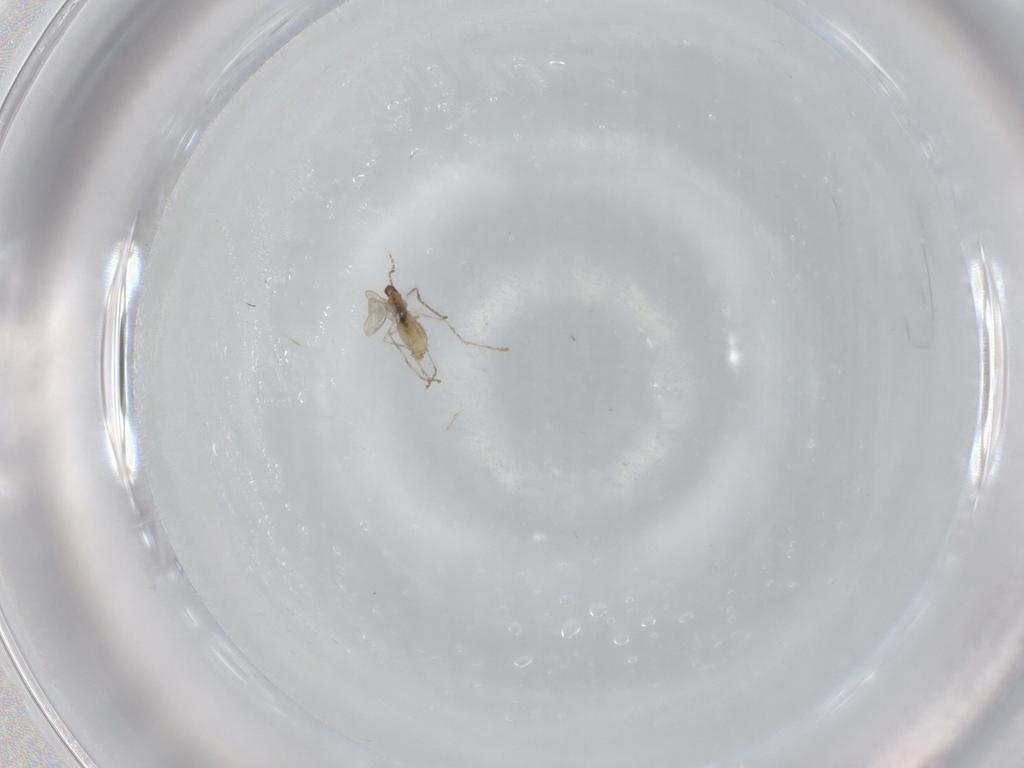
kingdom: Animalia
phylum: Arthropoda
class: Insecta
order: Diptera
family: Cecidomyiidae
